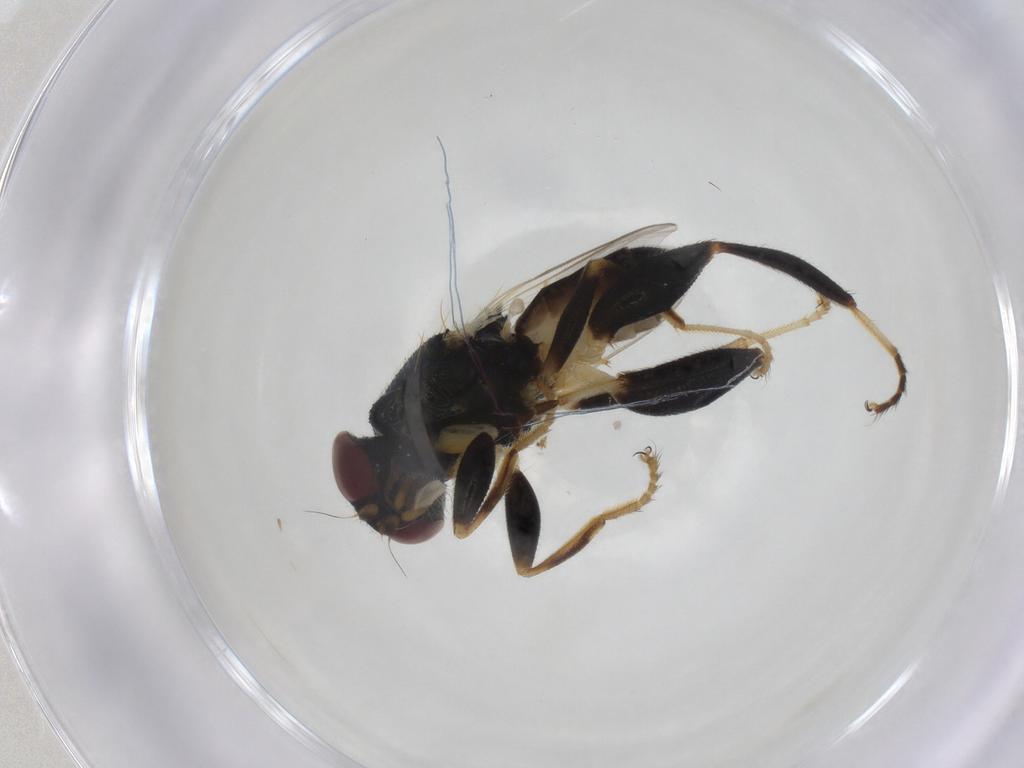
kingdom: Animalia
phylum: Arthropoda
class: Insecta
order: Diptera
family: Chloropidae
